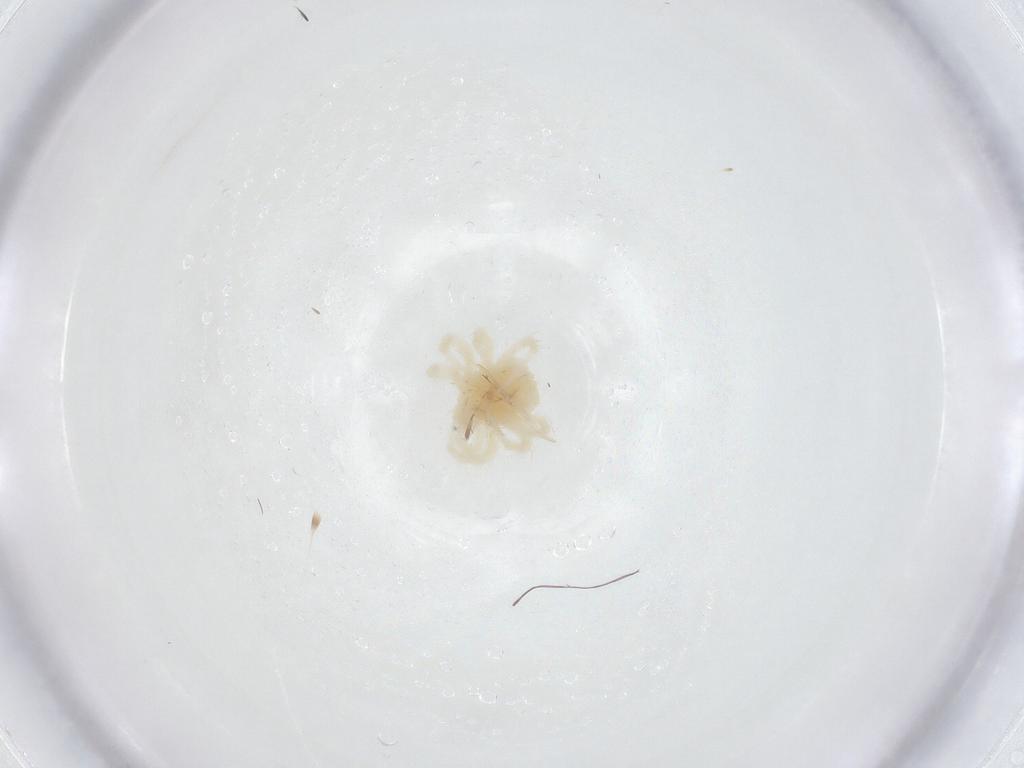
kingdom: Animalia
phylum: Arthropoda
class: Arachnida
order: Trombidiformes
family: Anystidae
